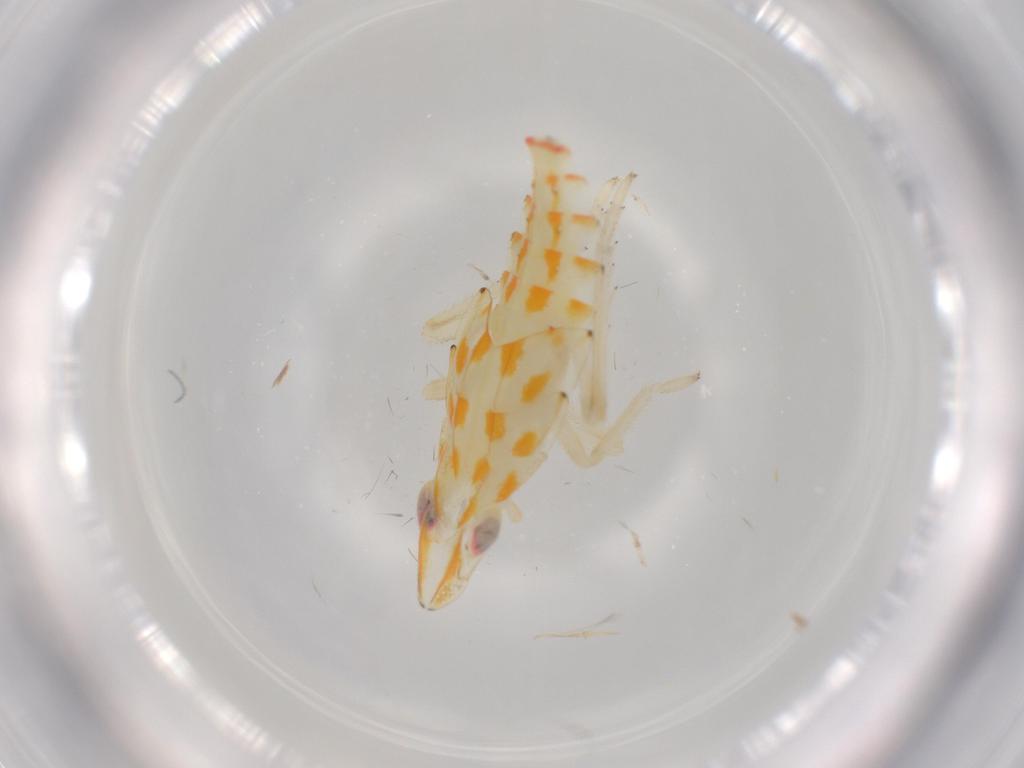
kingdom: Animalia
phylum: Arthropoda
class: Insecta
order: Hemiptera
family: Tropiduchidae
